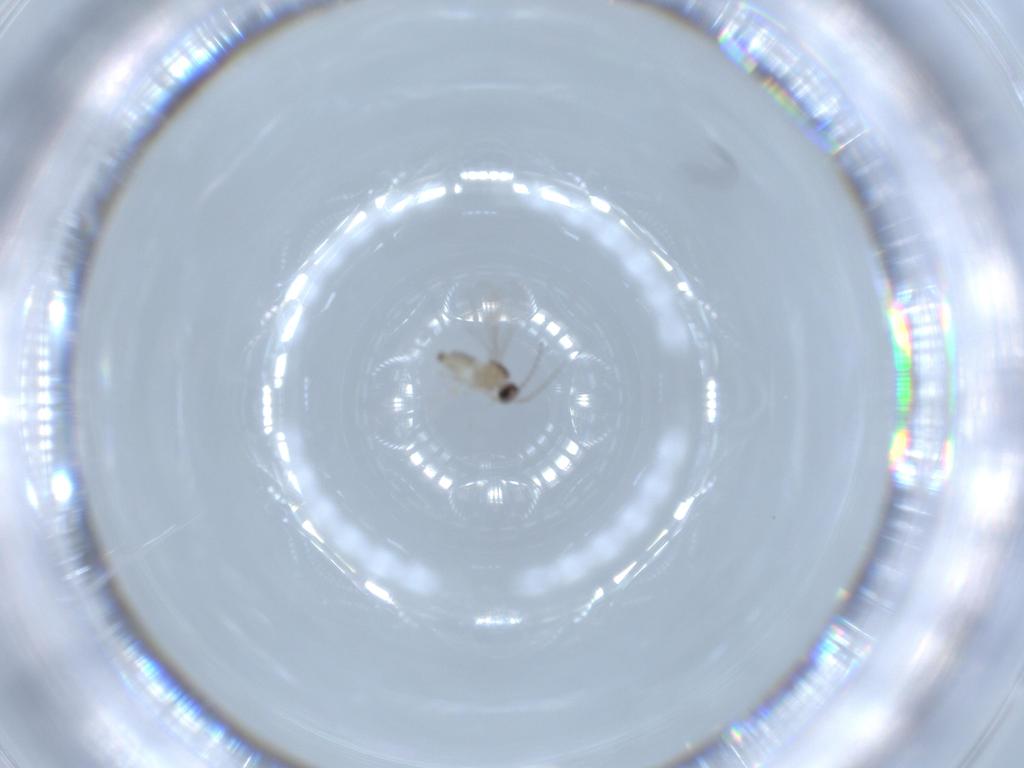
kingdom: Animalia
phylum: Arthropoda
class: Insecta
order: Diptera
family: Cecidomyiidae
